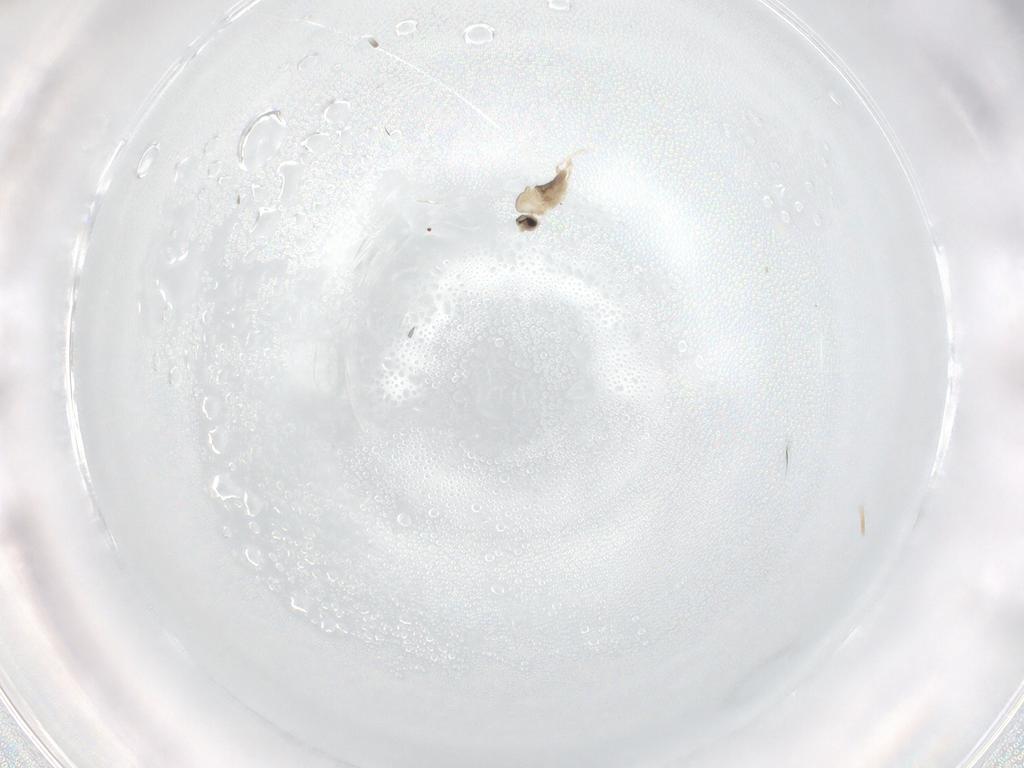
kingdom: Animalia
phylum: Arthropoda
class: Insecta
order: Diptera
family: Cecidomyiidae
